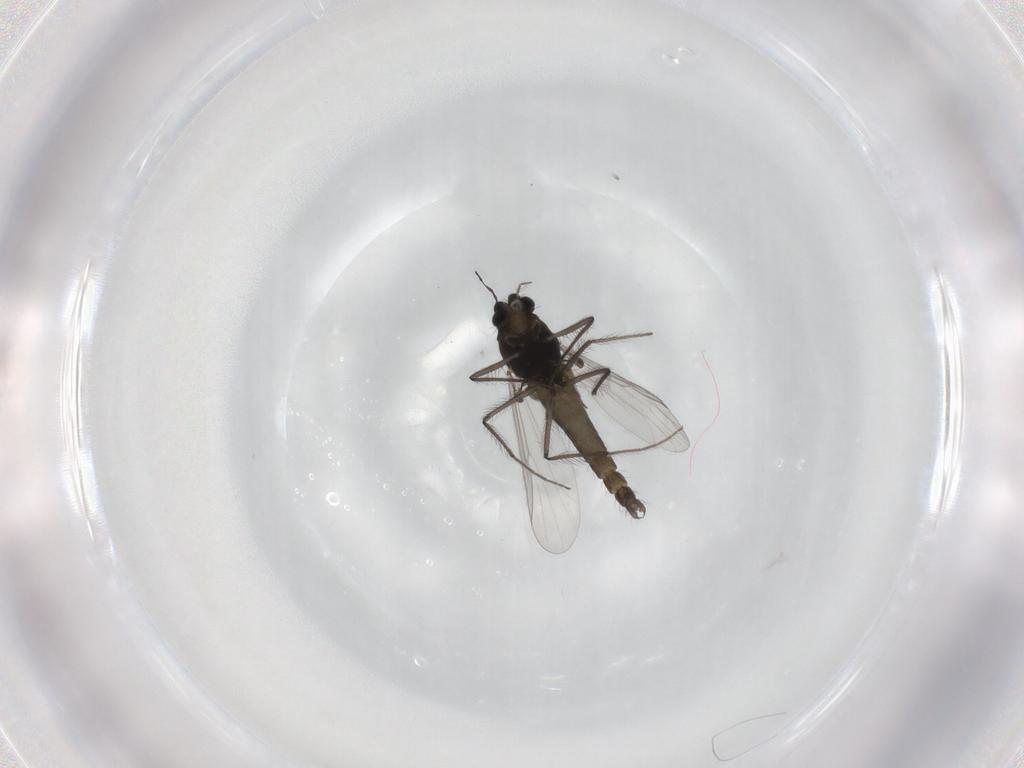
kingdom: Animalia
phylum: Arthropoda
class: Insecta
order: Diptera
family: Chironomidae
